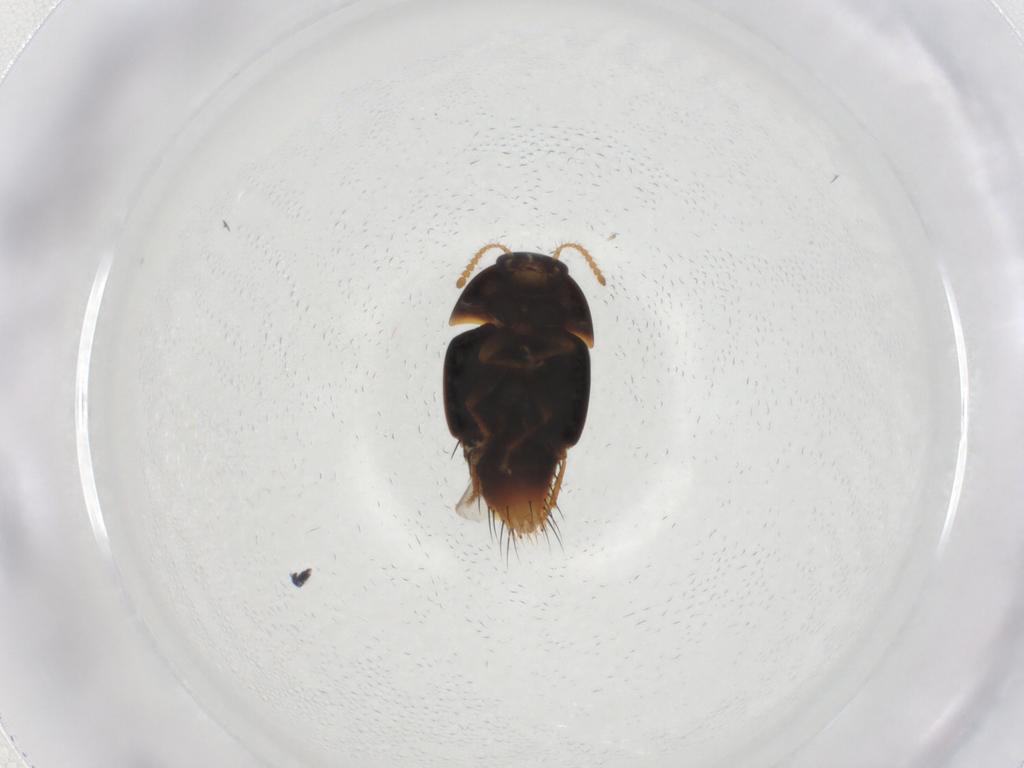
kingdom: Animalia
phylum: Arthropoda
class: Insecta
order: Coleoptera
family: Staphylinidae
